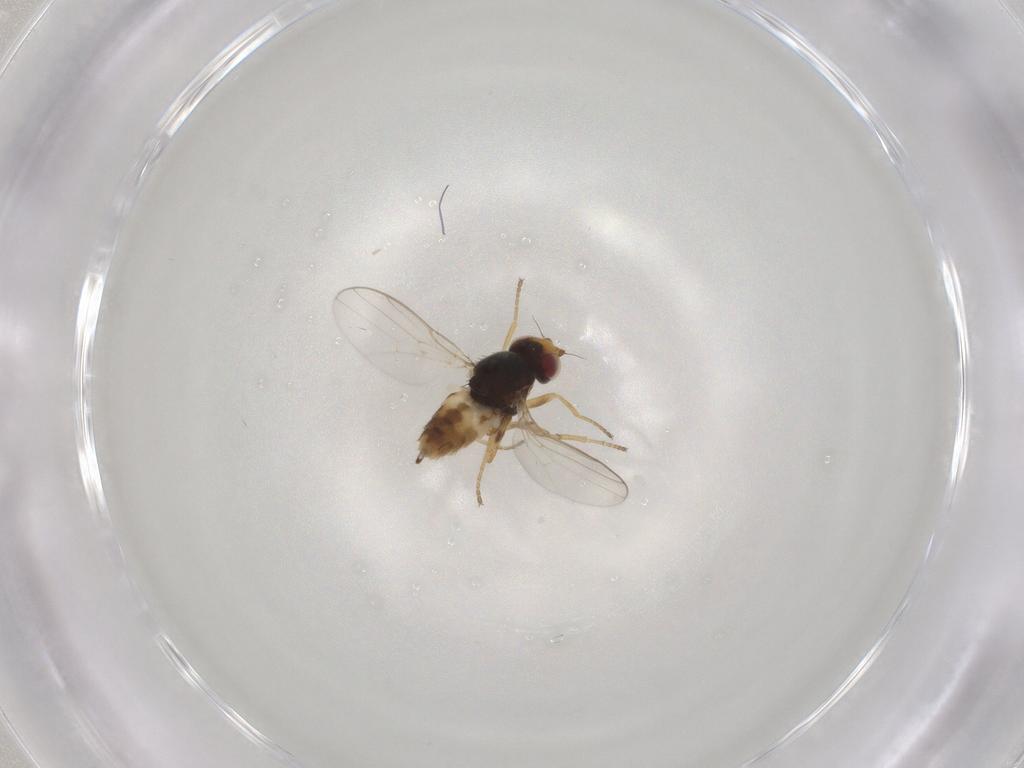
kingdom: Animalia
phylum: Arthropoda
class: Insecta
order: Diptera
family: Chloropidae
